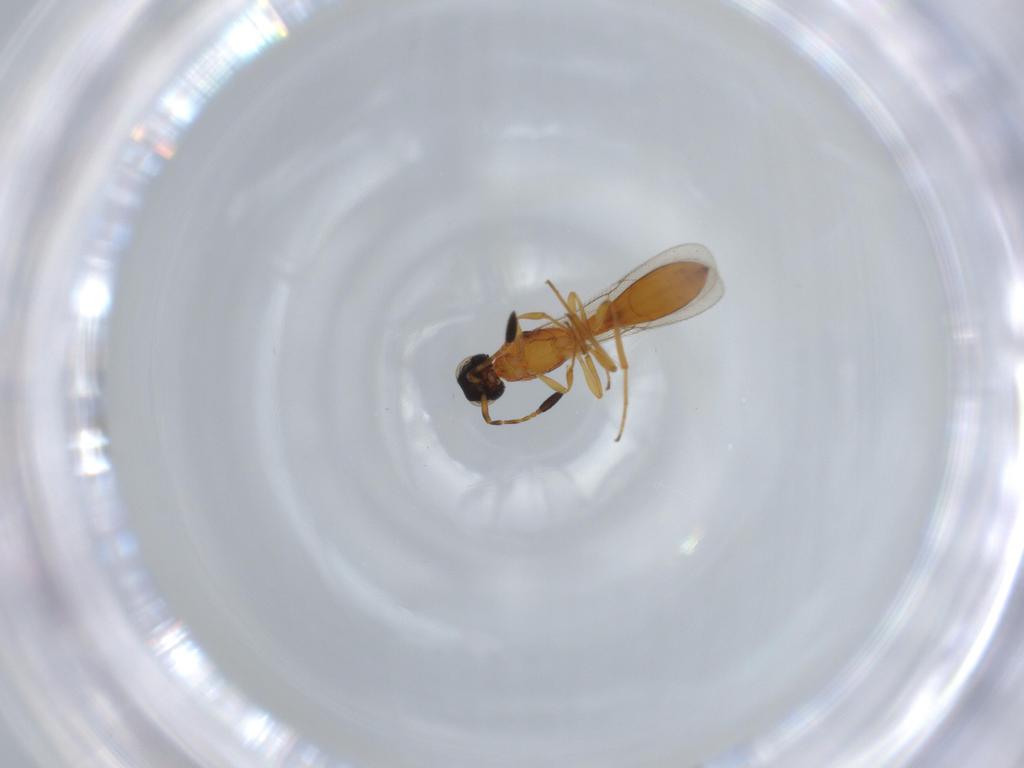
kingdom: Animalia
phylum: Arthropoda
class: Insecta
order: Hymenoptera
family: Scelionidae
